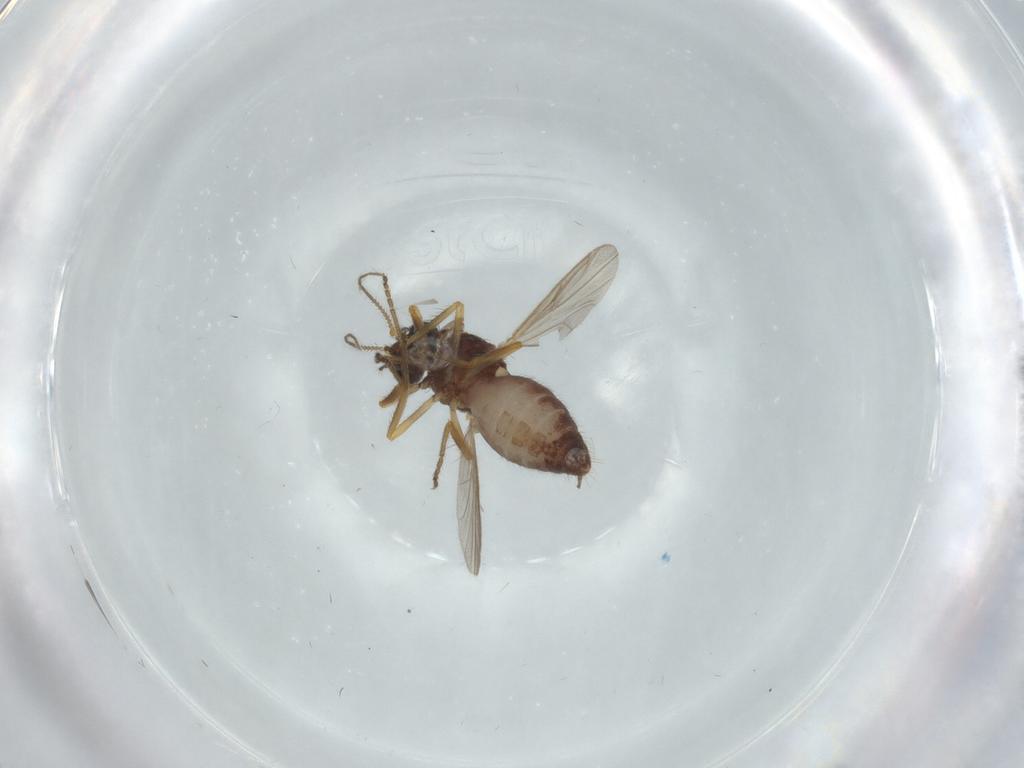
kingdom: Animalia
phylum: Arthropoda
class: Insecta
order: Diptera
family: Ceratopogonidae
